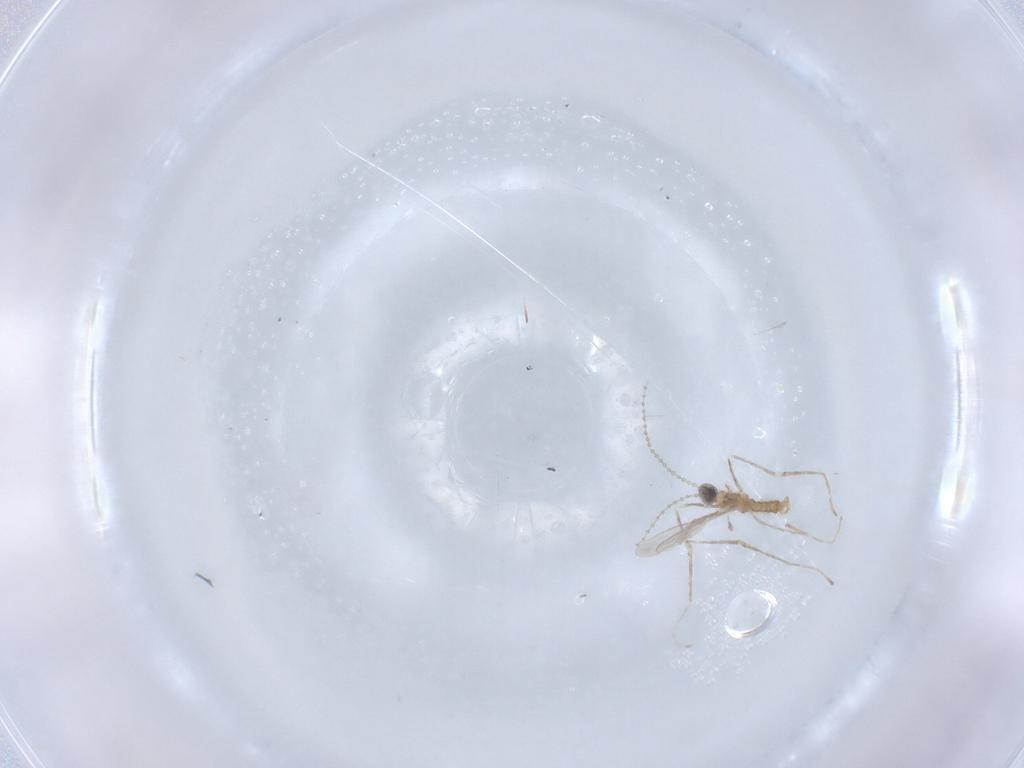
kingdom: Animalia
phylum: Arthropoda
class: Insecta
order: Diptera
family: Cecidomyiidae
